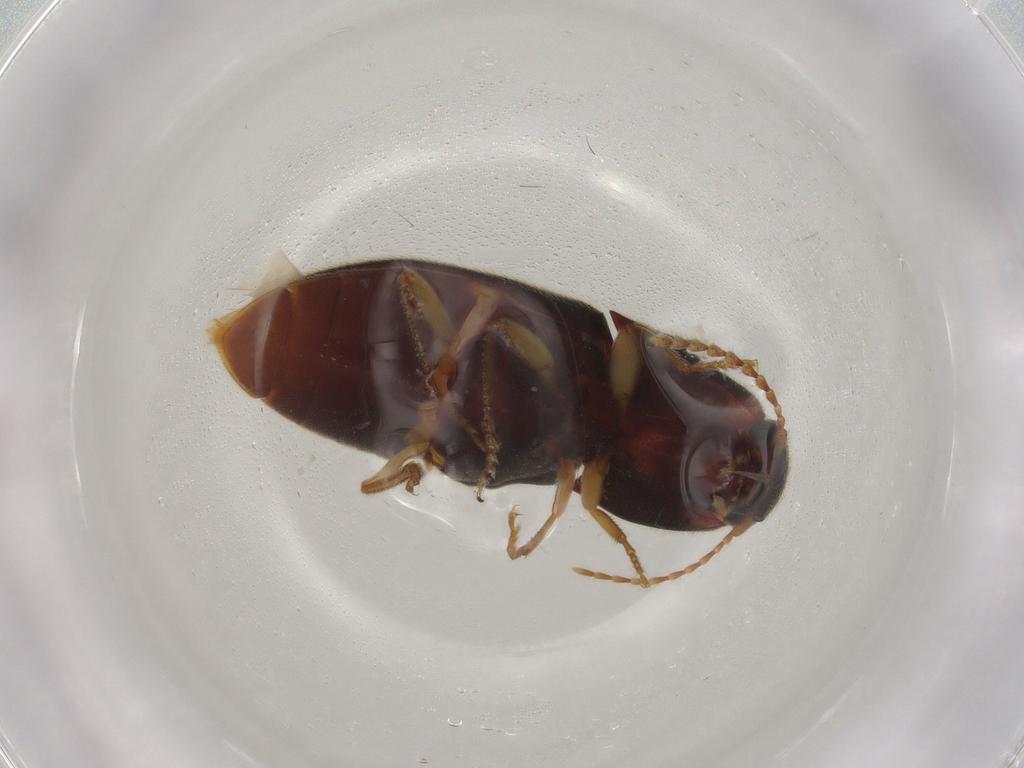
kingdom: Animalia
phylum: Arthropoda
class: Insecta
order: Coleoptera
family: Elateridae
